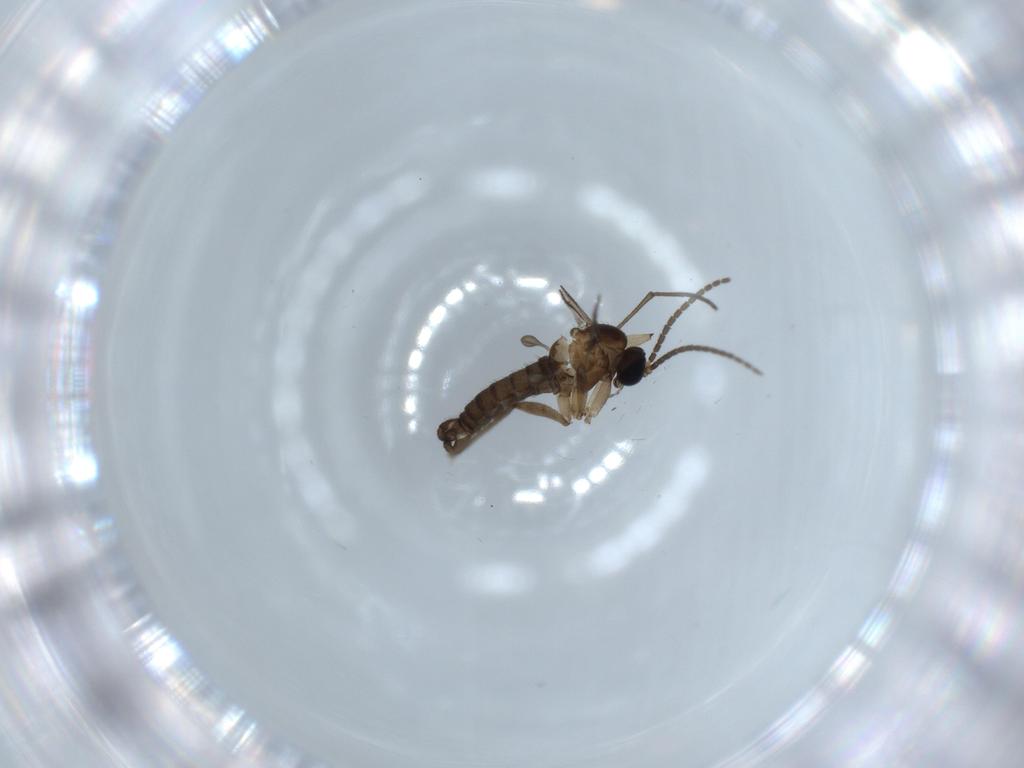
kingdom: Animalia
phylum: Arthropoda
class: Insecta
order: Diptera
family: Sciaridae
